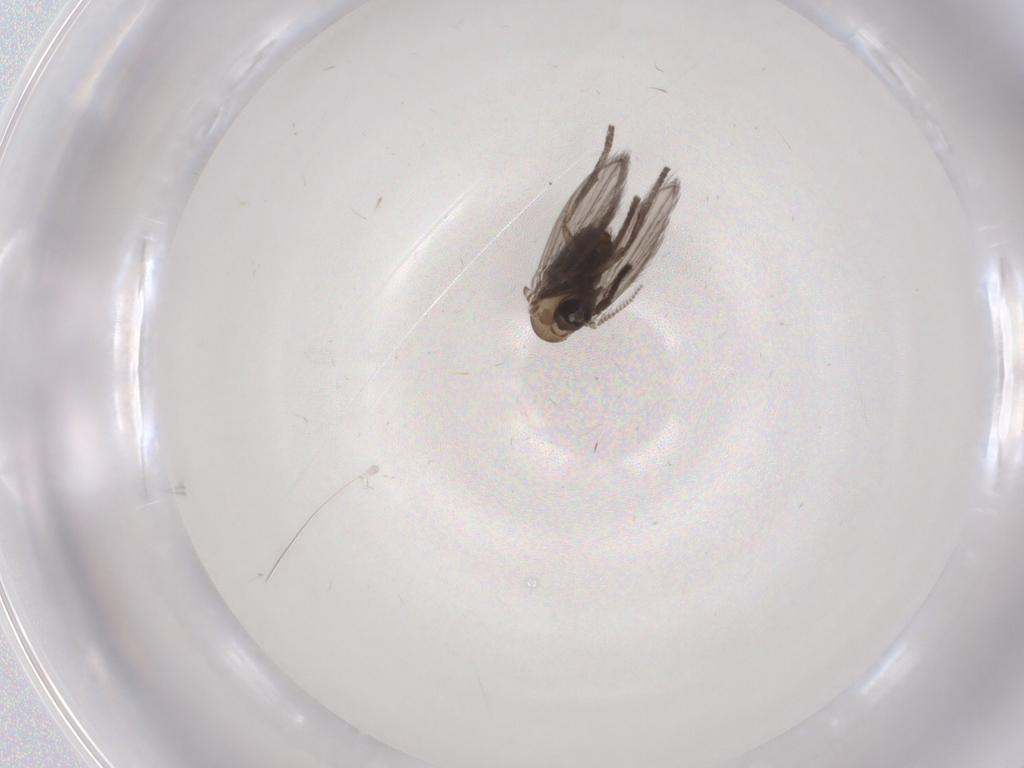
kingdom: Animalia
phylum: Arthropoda
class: Insecta
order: Diptera
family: Psychodidae
